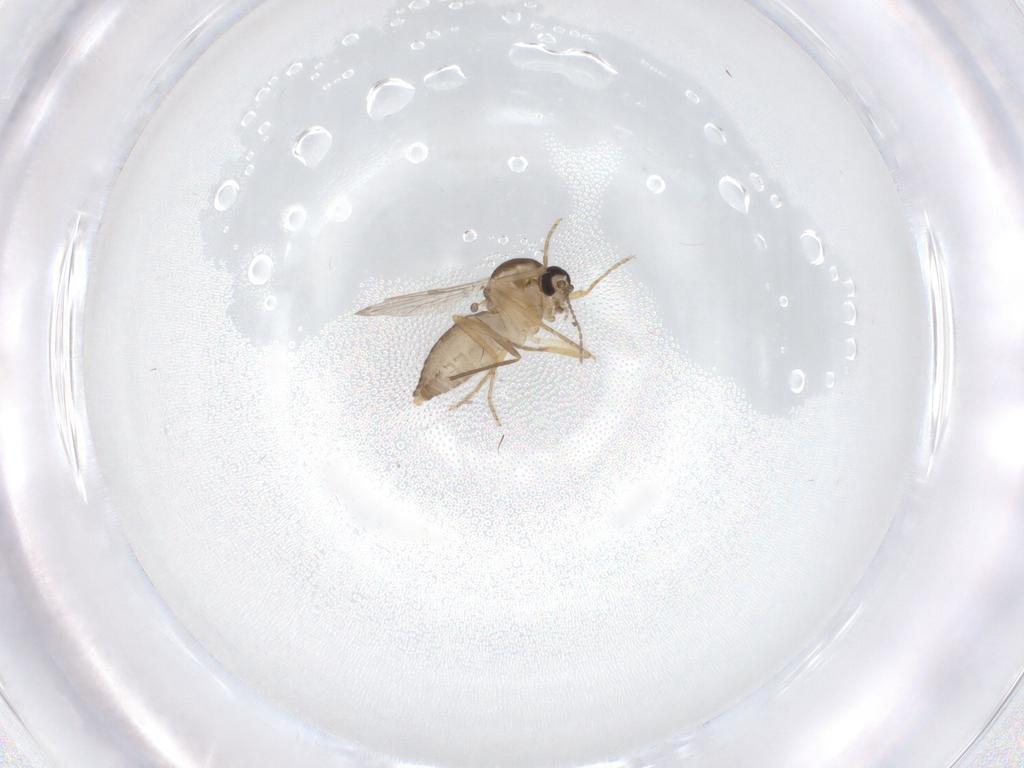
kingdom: Animalia
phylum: Arthropoda
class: Insecta
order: Diptera
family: Ceratopogonidae
